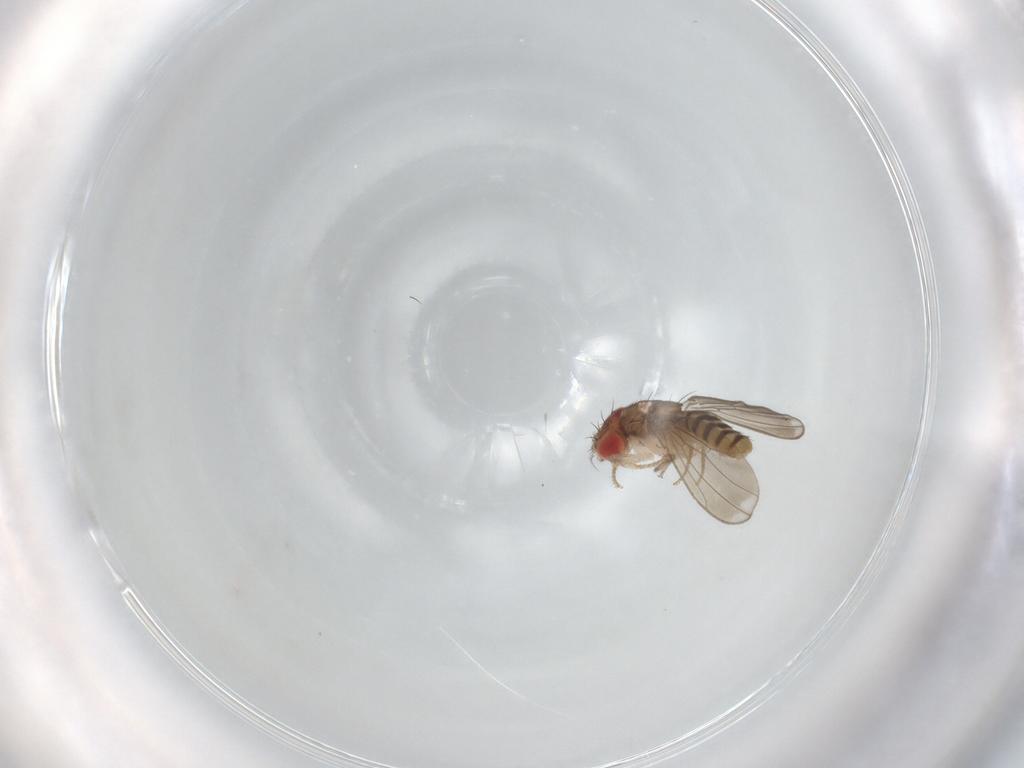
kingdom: Animalia
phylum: Arthropoda
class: Insecta
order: Diptera
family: Drosophilidae
